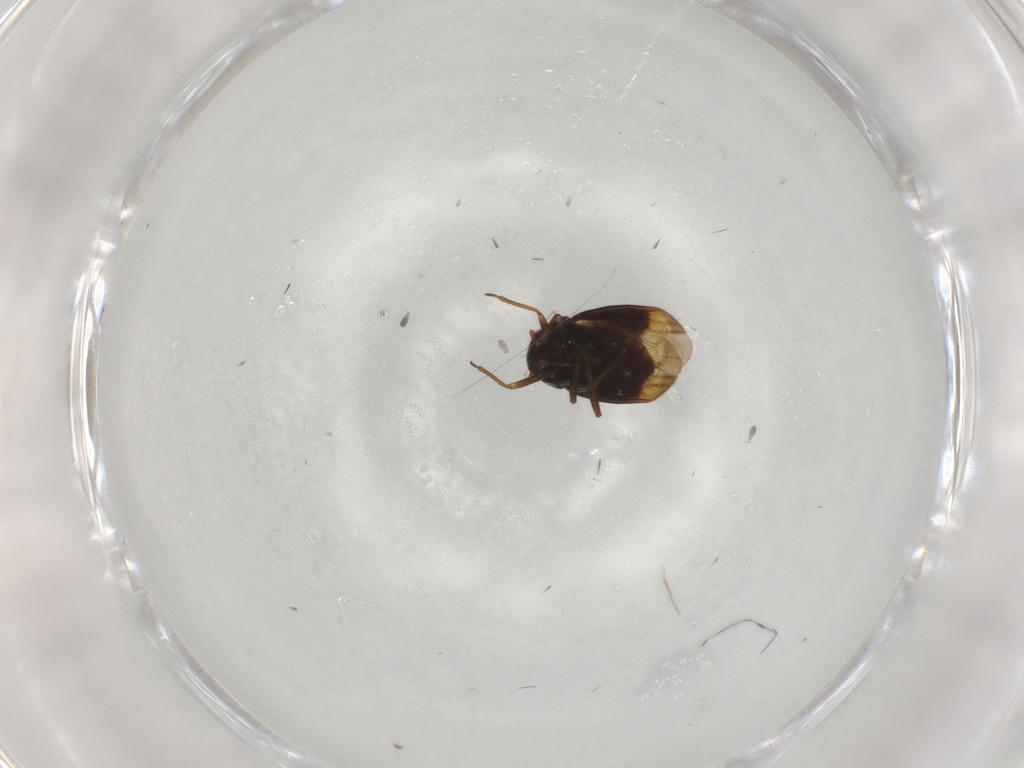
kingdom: Animalia
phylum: Arthropoda
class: Insecta
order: Hemiptera
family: Schizopteridae
